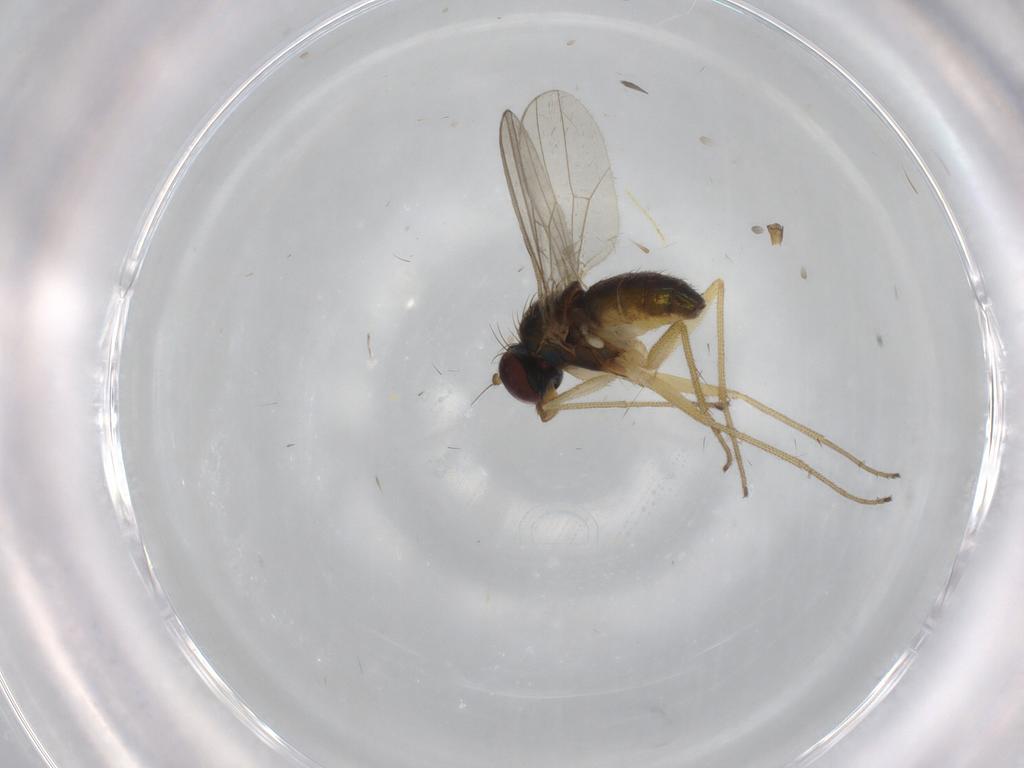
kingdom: Animalia
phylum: Arthropoda
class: Insecta
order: Diptera
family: Dolichopodidae
